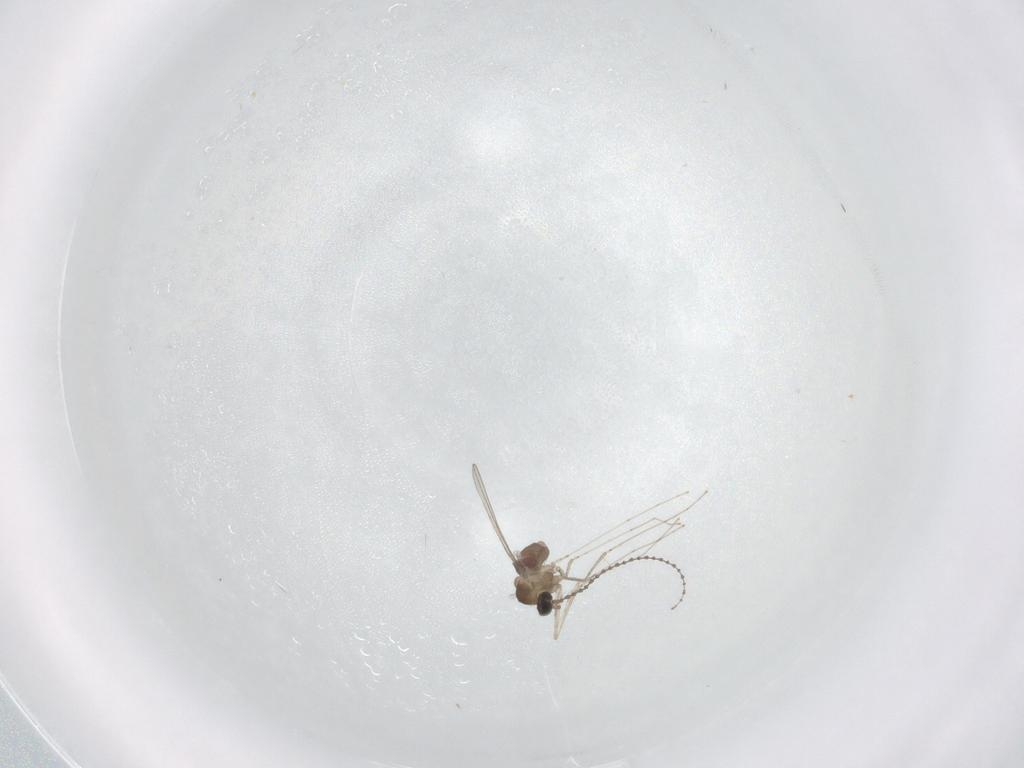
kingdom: Animalia
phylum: Arthropoda
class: Insecta
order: Diptera
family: Cecidomyiidae
